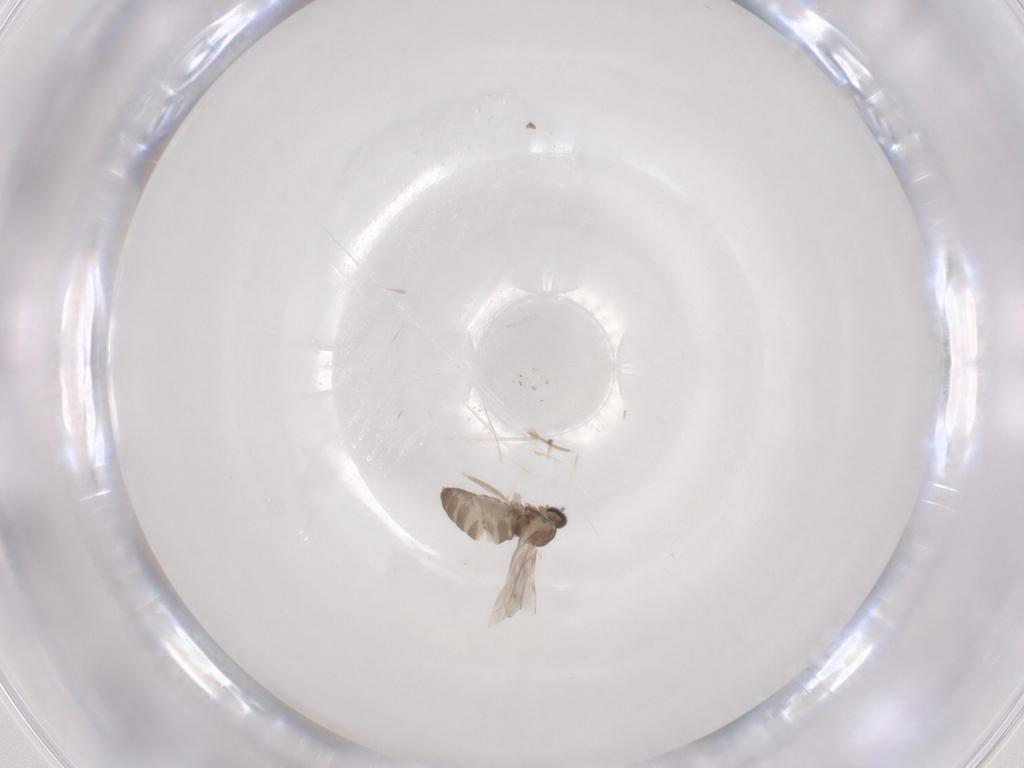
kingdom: Animalia
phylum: Arthropoda
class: Insecta
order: Diptera
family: Cecidomyiidae
